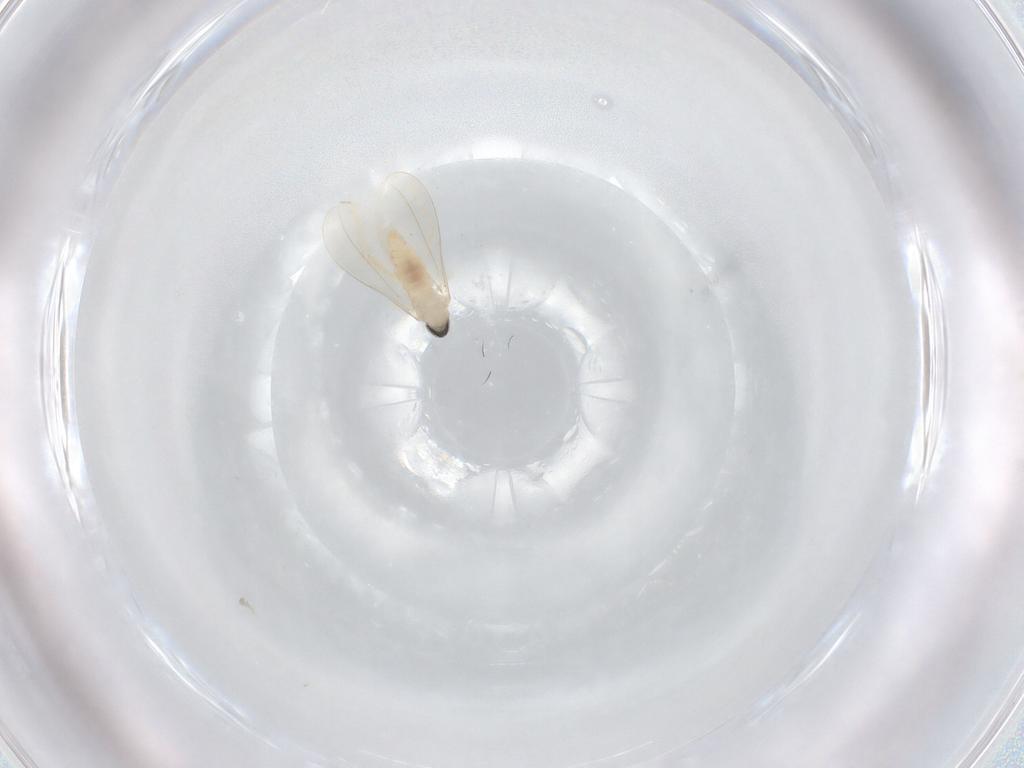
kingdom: Animalia
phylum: Arthropoda
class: Insecta
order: Diptera
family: Cecidomyiidae
